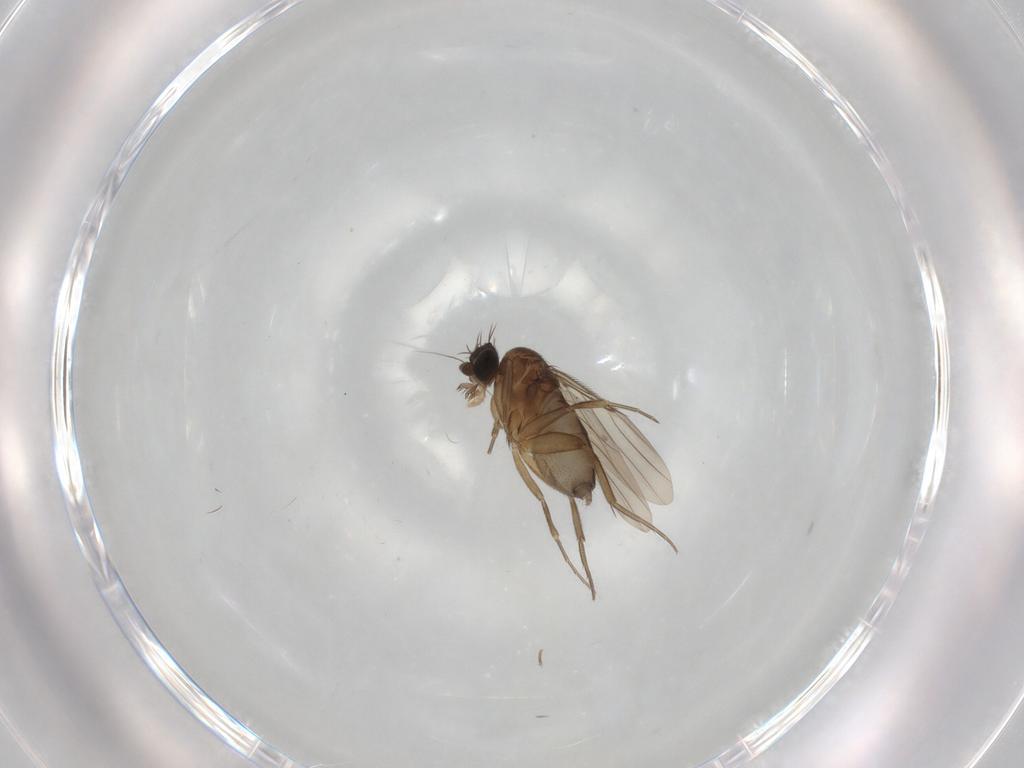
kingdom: Animalia
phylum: Arthropoda
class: Insecta
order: Diptera
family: Phoridae
